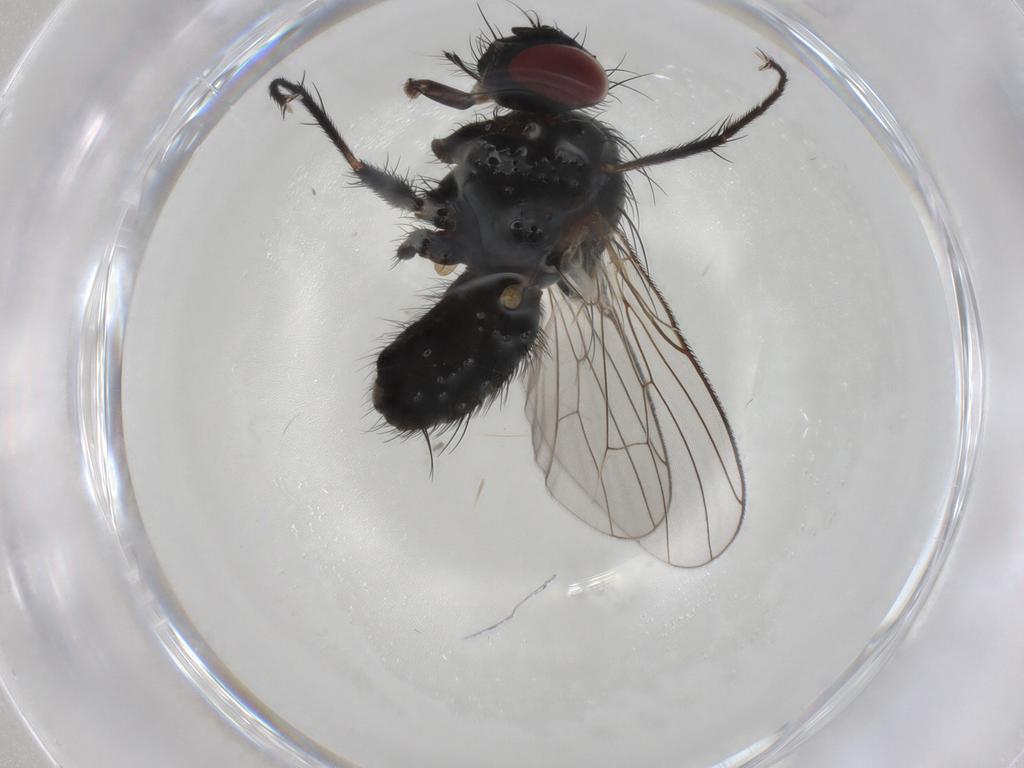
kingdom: Animalia
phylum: Arthropoda
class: Insecta
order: Diptera
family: Muscidae
